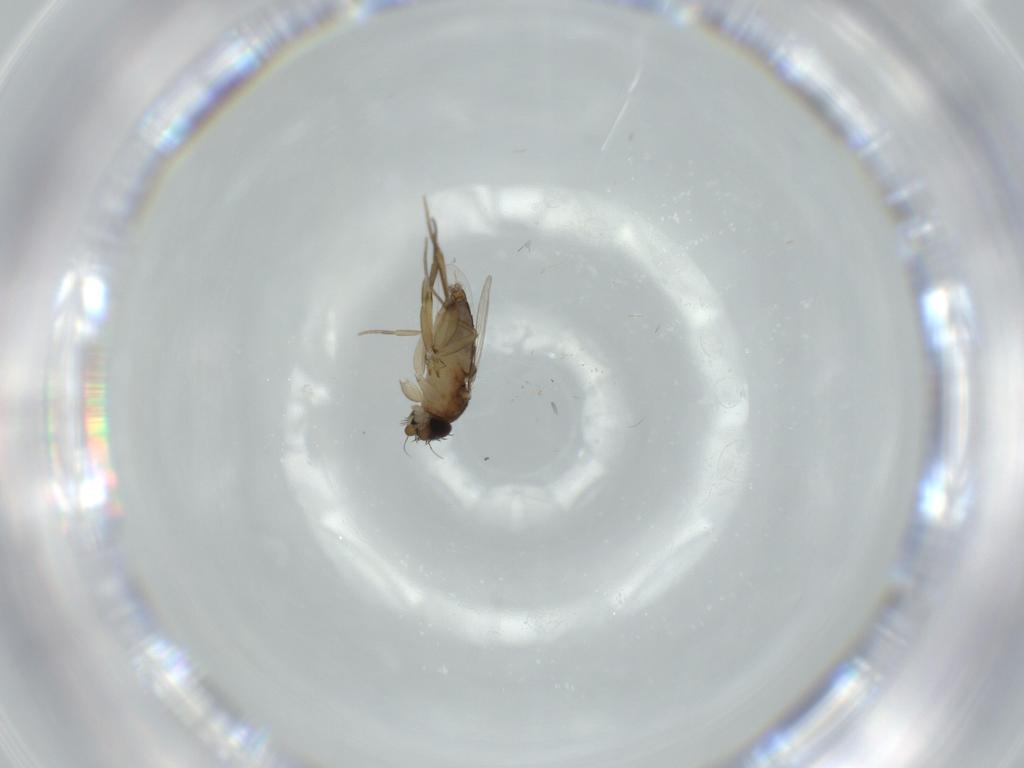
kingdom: Animalia
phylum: Arthropoda
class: Insecta
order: Diptera
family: Phoridae
